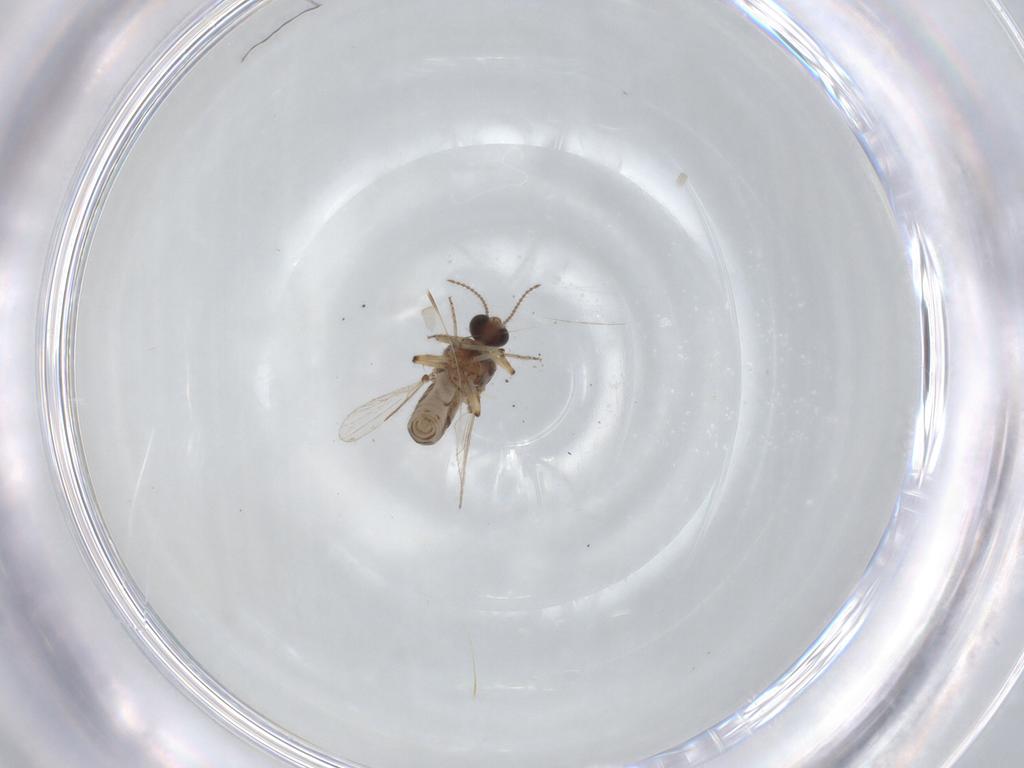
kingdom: Animalia
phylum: Arthropoda
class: Insecta
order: Diptera
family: Ceratopogonidae
